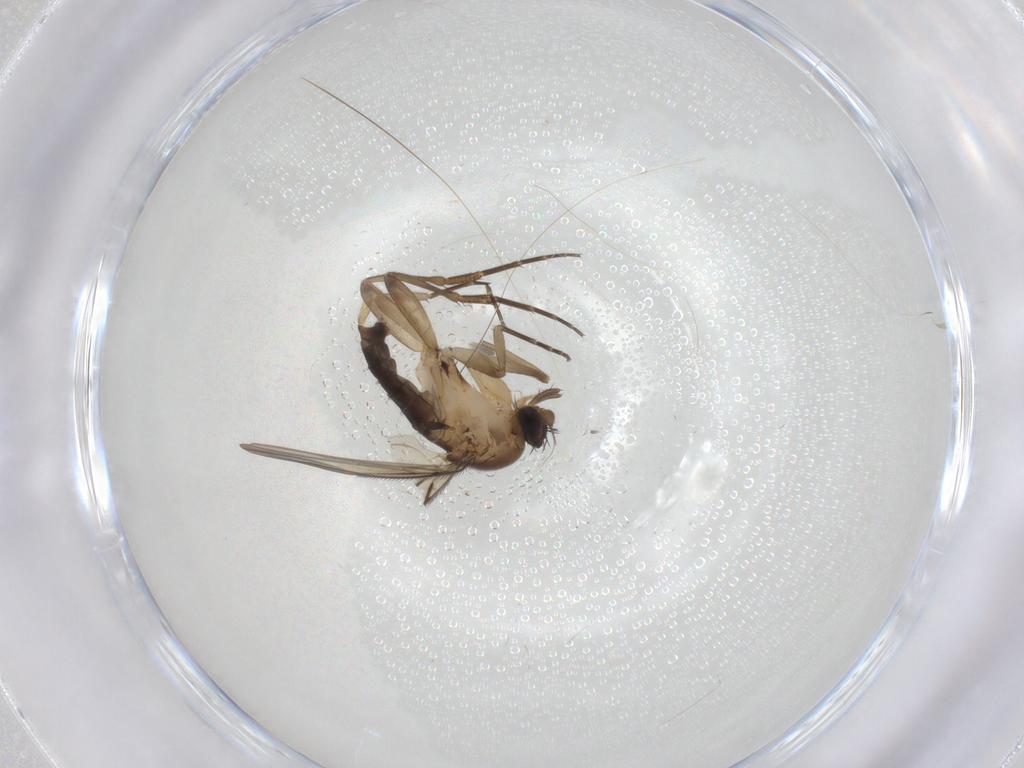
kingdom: Animalia
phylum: Arthropoda
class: Insecta
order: Diptera
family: Phoridae
